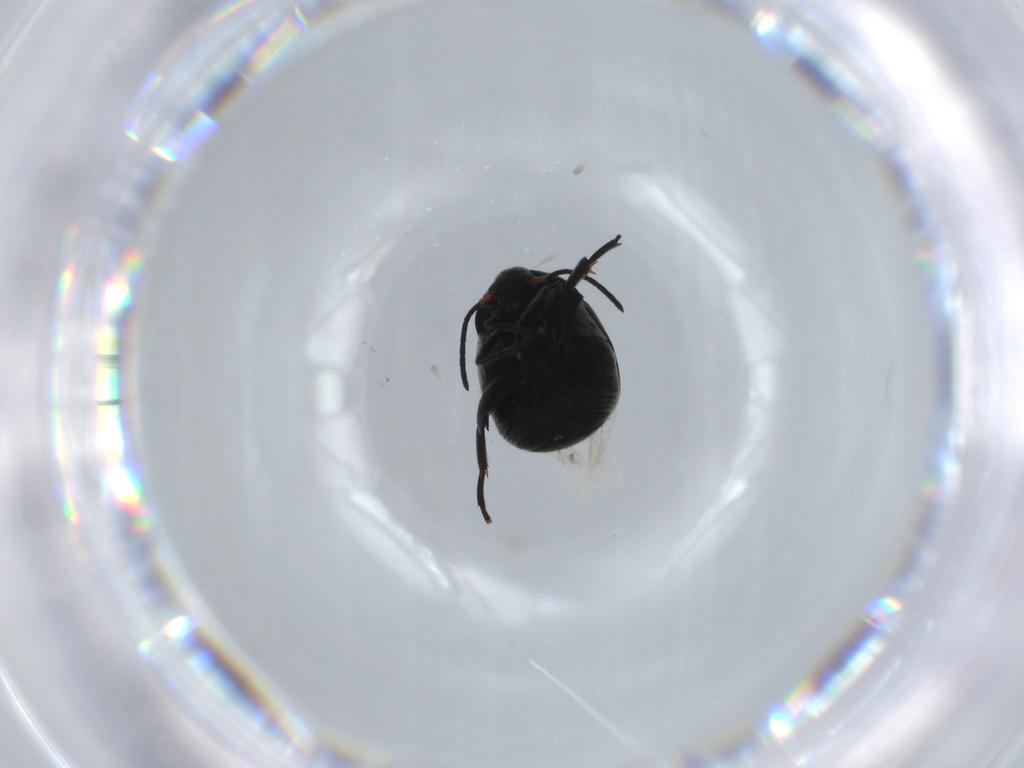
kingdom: Animalia
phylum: Arthropoda
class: Insecta
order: Coleoptera
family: Chrysomelidae
